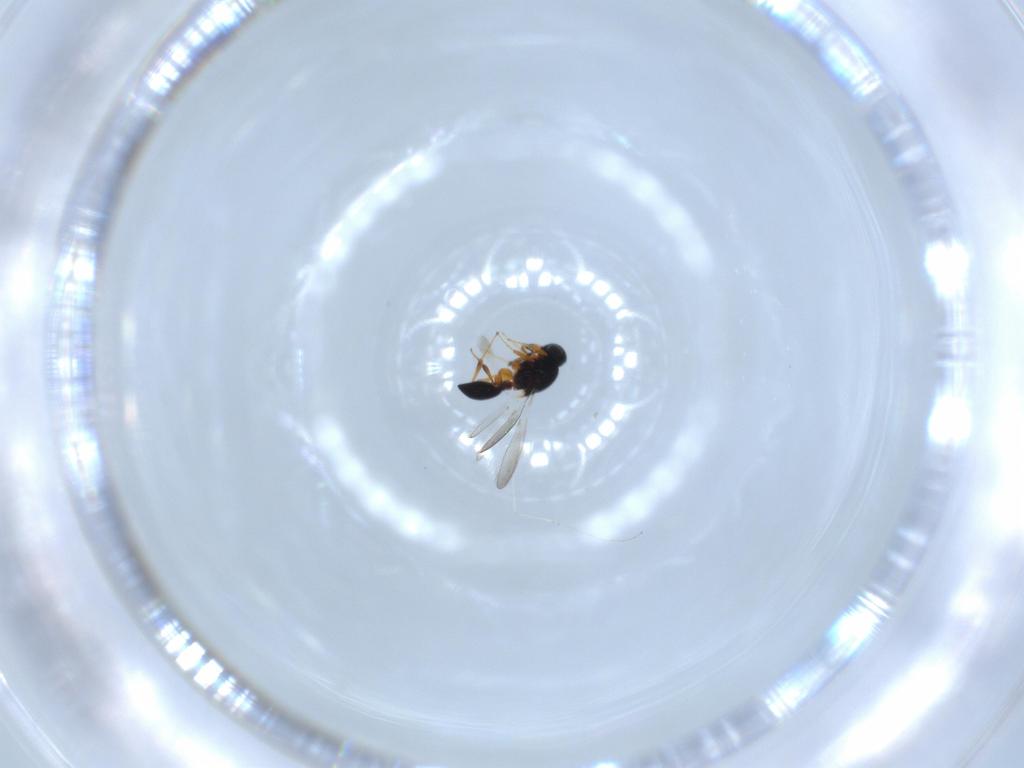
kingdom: Animalia
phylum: Arthropoda
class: Insecta
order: Hymenoptera
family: Platygastridae
